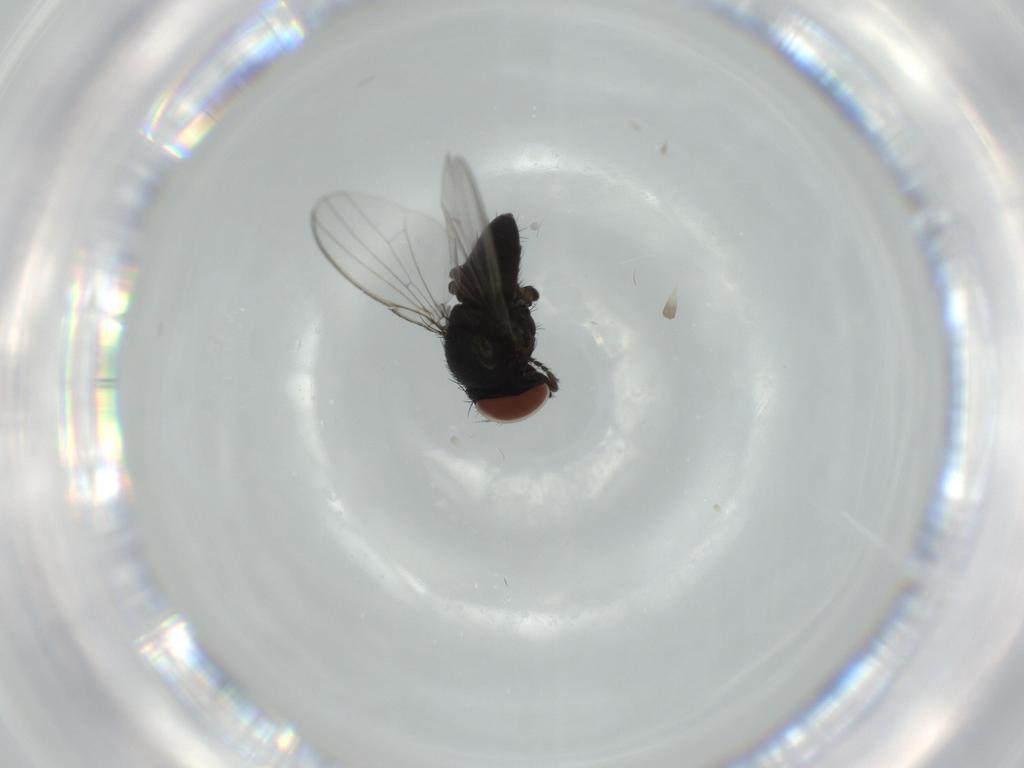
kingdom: Animalia
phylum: Arthropoda
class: Insecta
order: Diptera
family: Milichiidae
